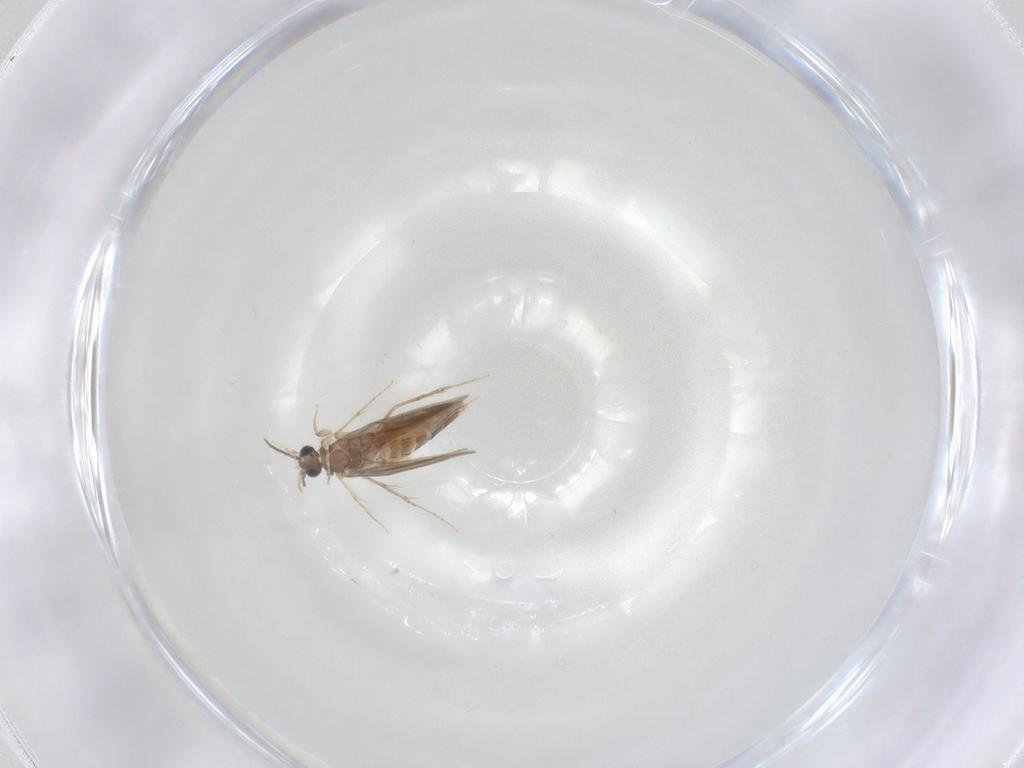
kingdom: Animalia
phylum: Arthropoda
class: Insecta
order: Trichoptera
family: Hydroptilidae
